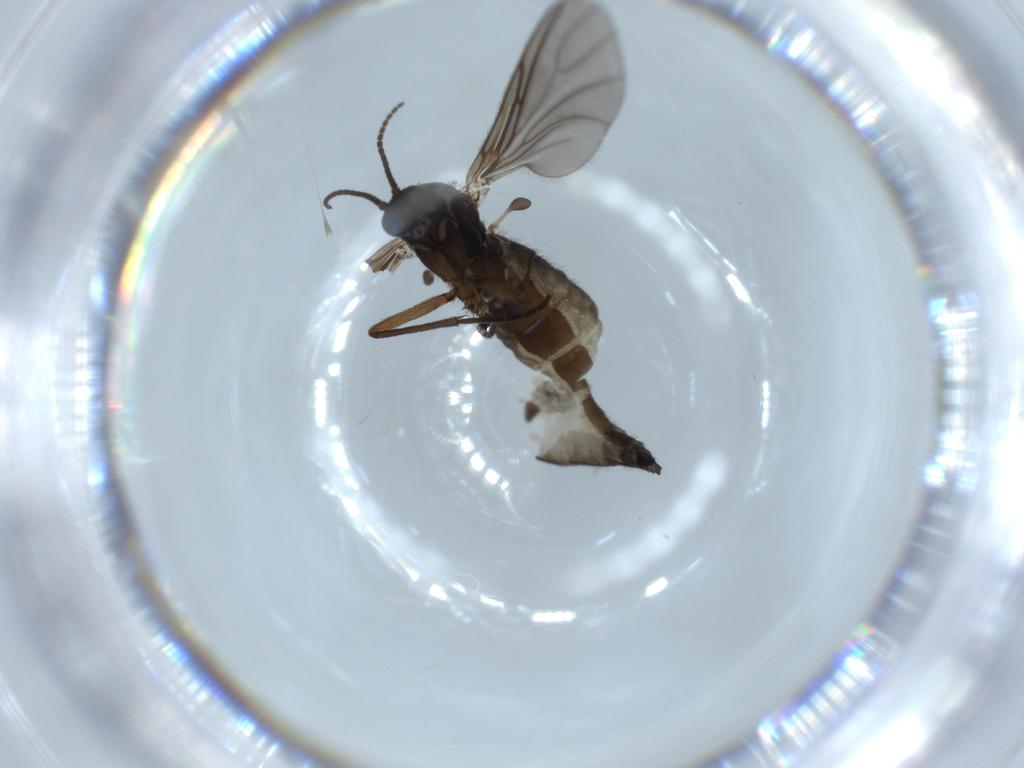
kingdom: Animalia
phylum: Arthropoda
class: Insecta
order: Diptera
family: Sciaridae
